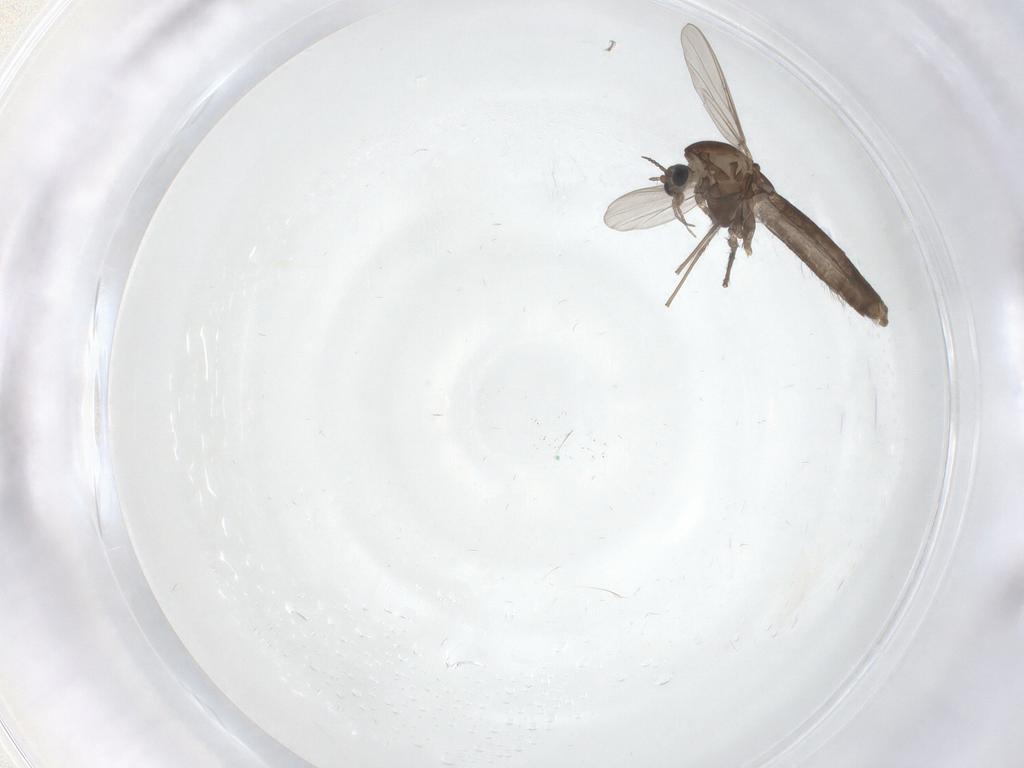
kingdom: Animalia
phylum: Arthropoda
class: Insecta
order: Diptera
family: Chironomidae
